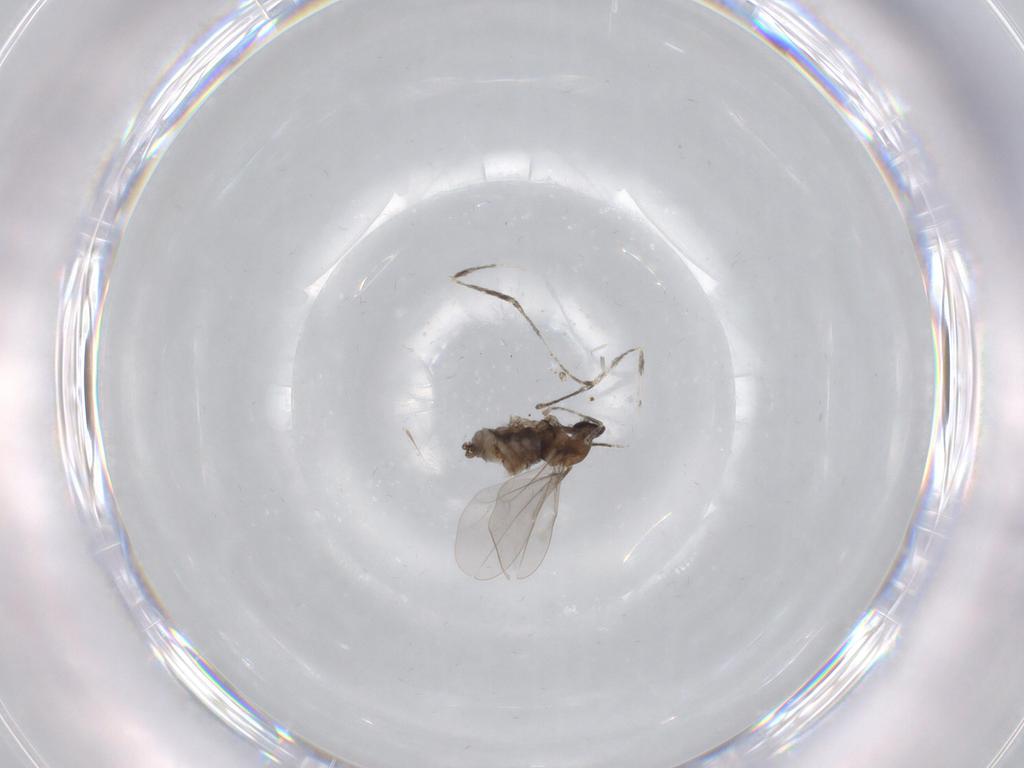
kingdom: Animalia
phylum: Arthropoda
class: Insecta
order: Diptera
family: Cecidomyiidae
